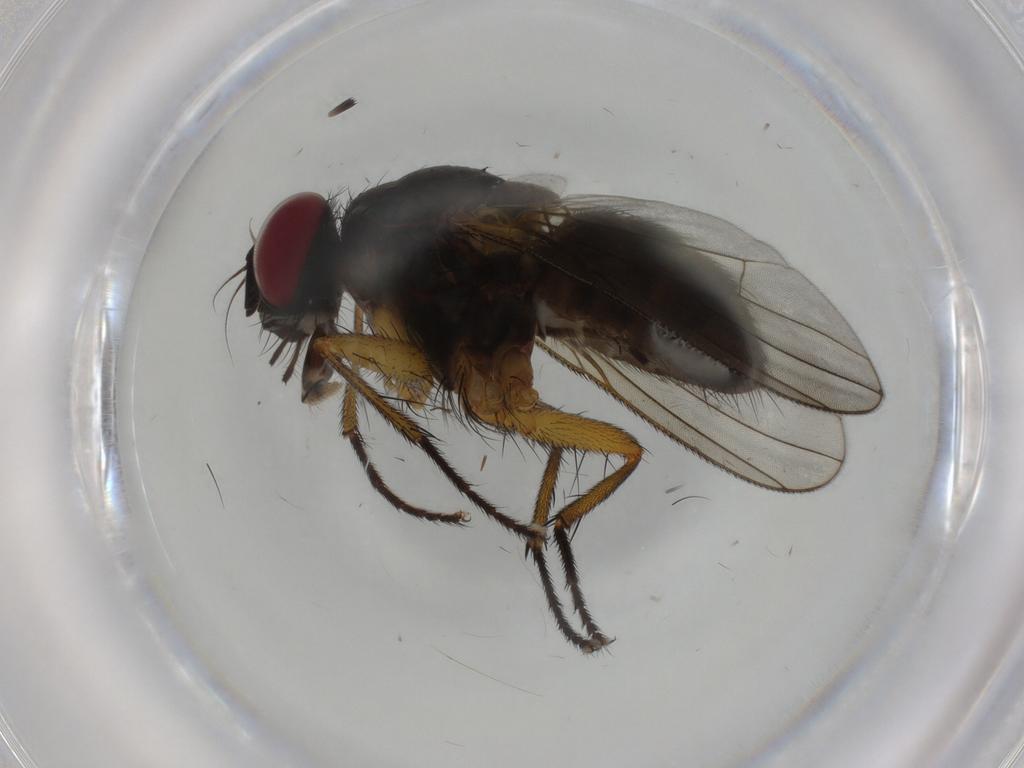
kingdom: Animalia
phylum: Arthropoda
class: Insecta
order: Diptera
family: Muscidae
